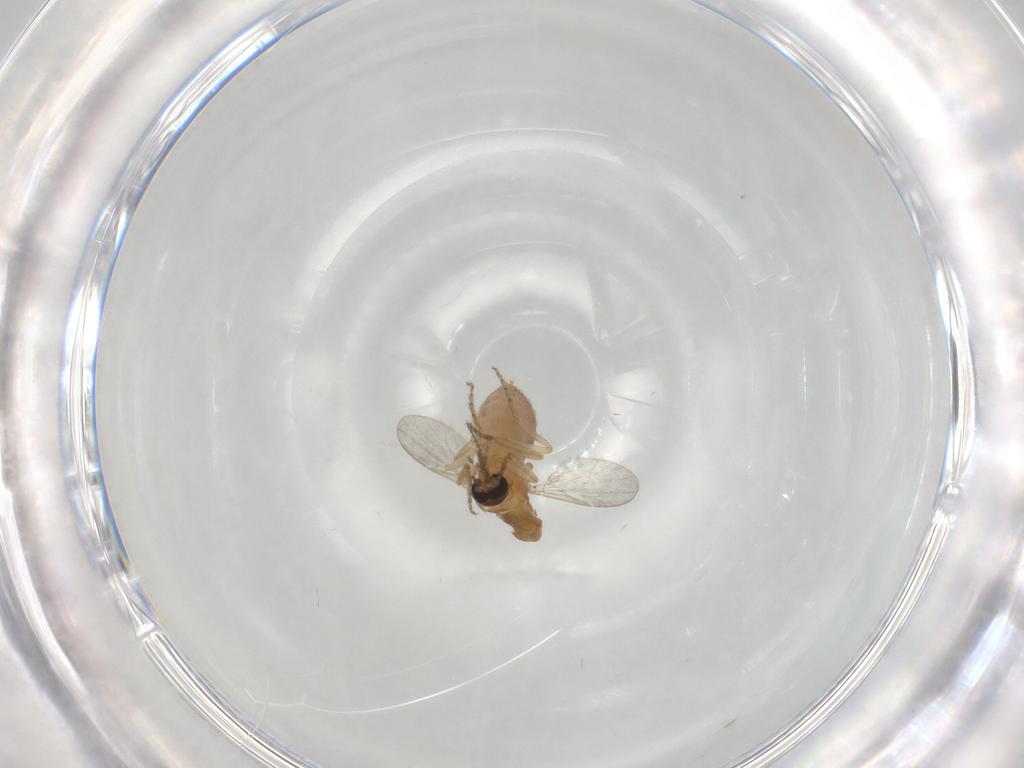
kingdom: Animalia
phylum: Arthropoda
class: Insecta
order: Diptera
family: Ceratopogonidae
